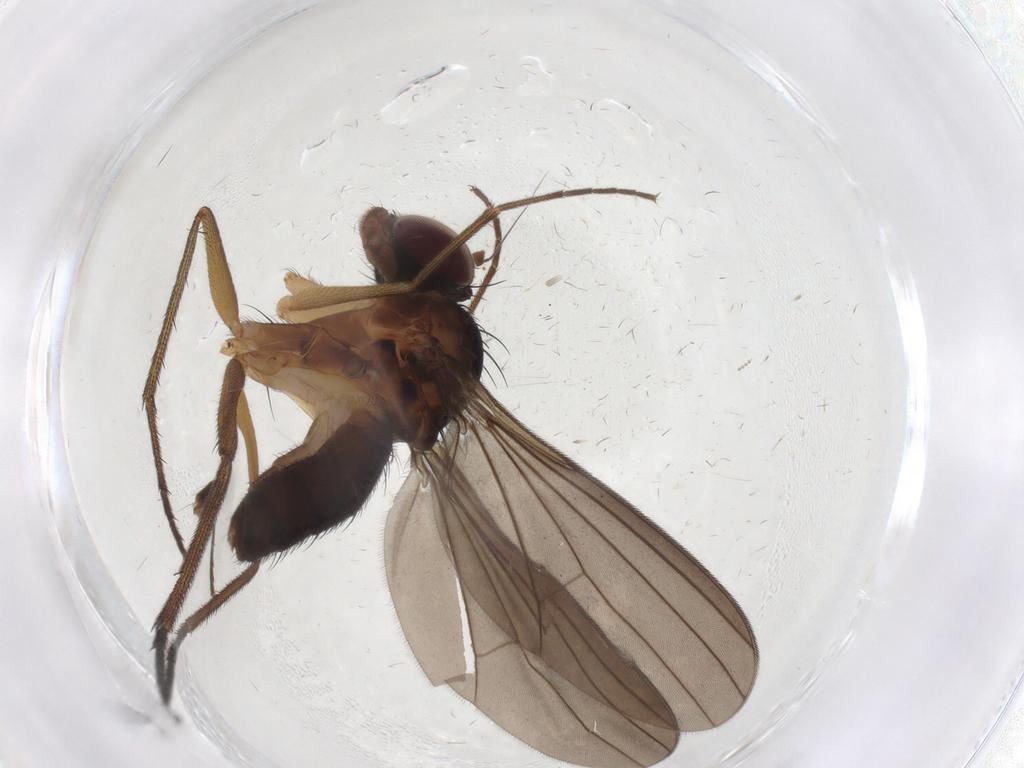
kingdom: Animalia
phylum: Arthropoda
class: Insecta
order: Diptera
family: Dolichopodidae
